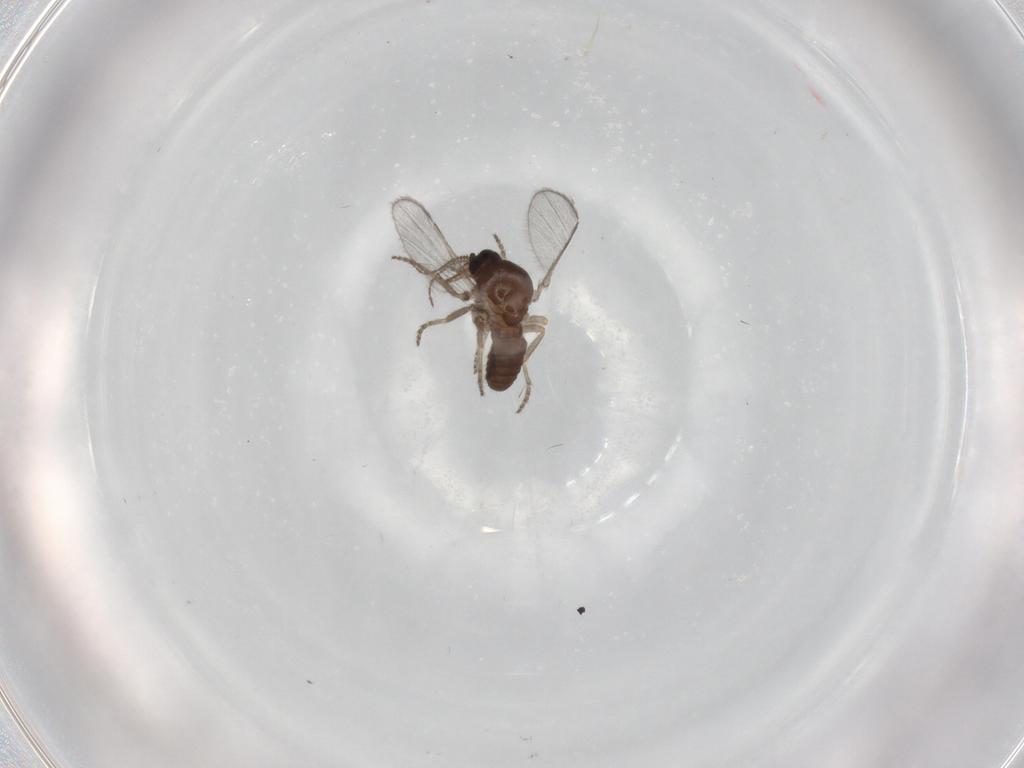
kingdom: Animalia
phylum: Arthropoda
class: Insecta
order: Diptera
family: Ceratopogonidae
